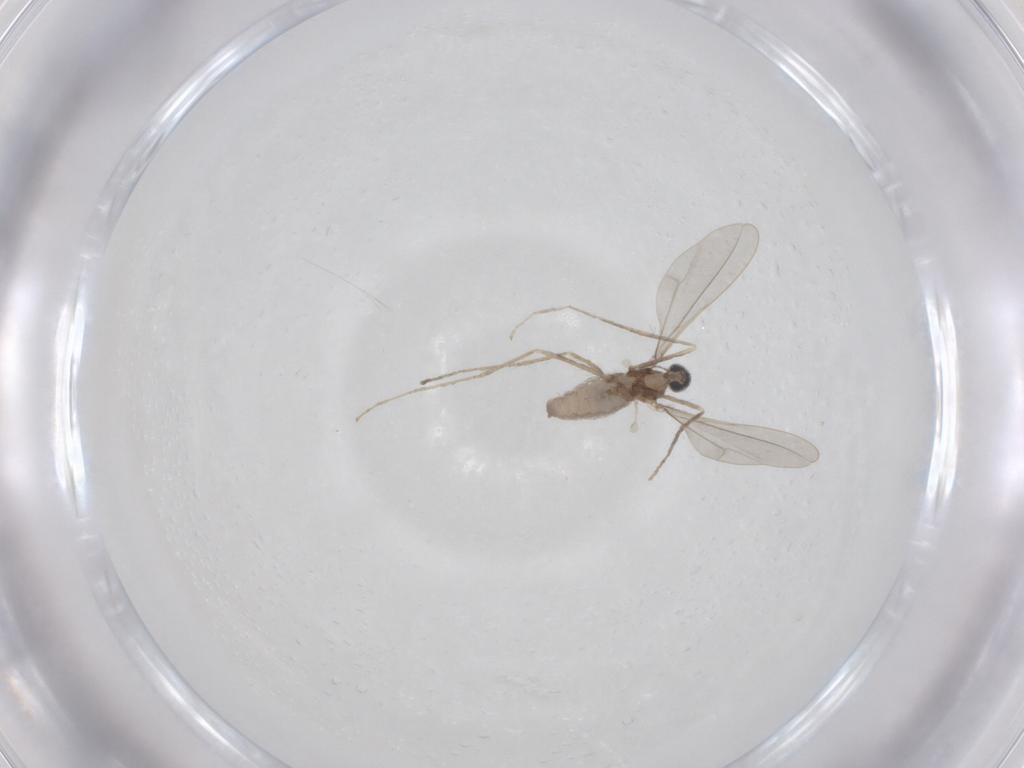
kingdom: Animalia
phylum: Arthropoda
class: Insecta
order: Diptera
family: Cecidomyiidae
